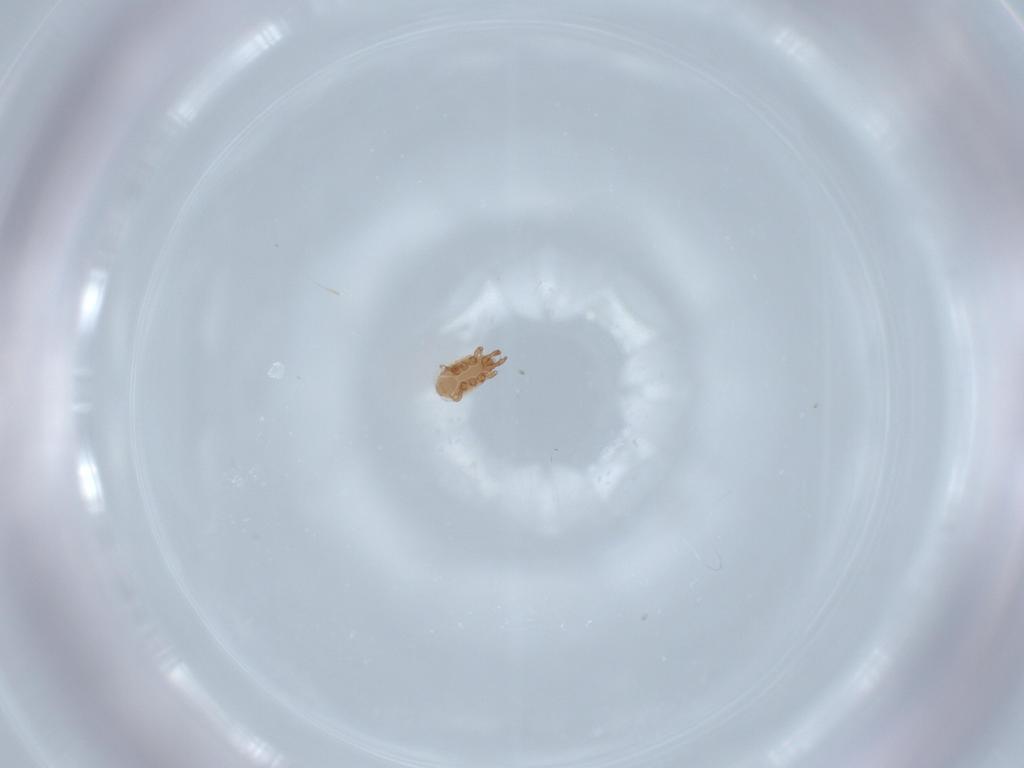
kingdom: Animalia
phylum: Arthropoda
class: Arachnida
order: Mesostigmata
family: Dinychidae
